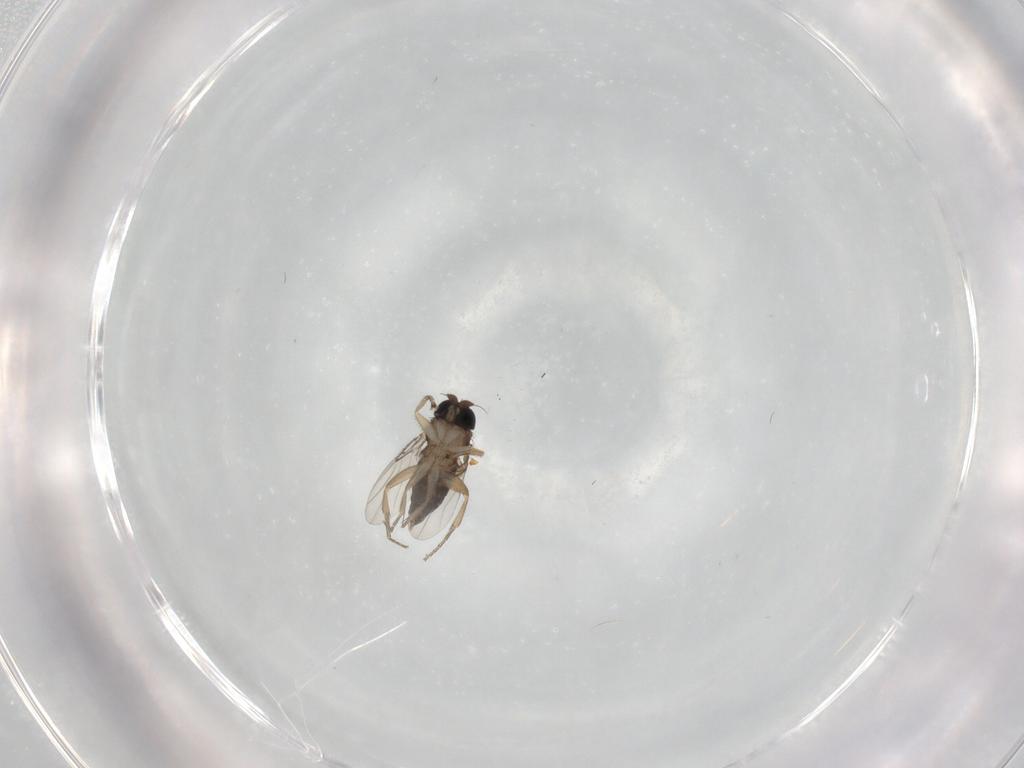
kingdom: Animalia
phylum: Arthropoda
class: Insecta
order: Diptera
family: Phoridae
